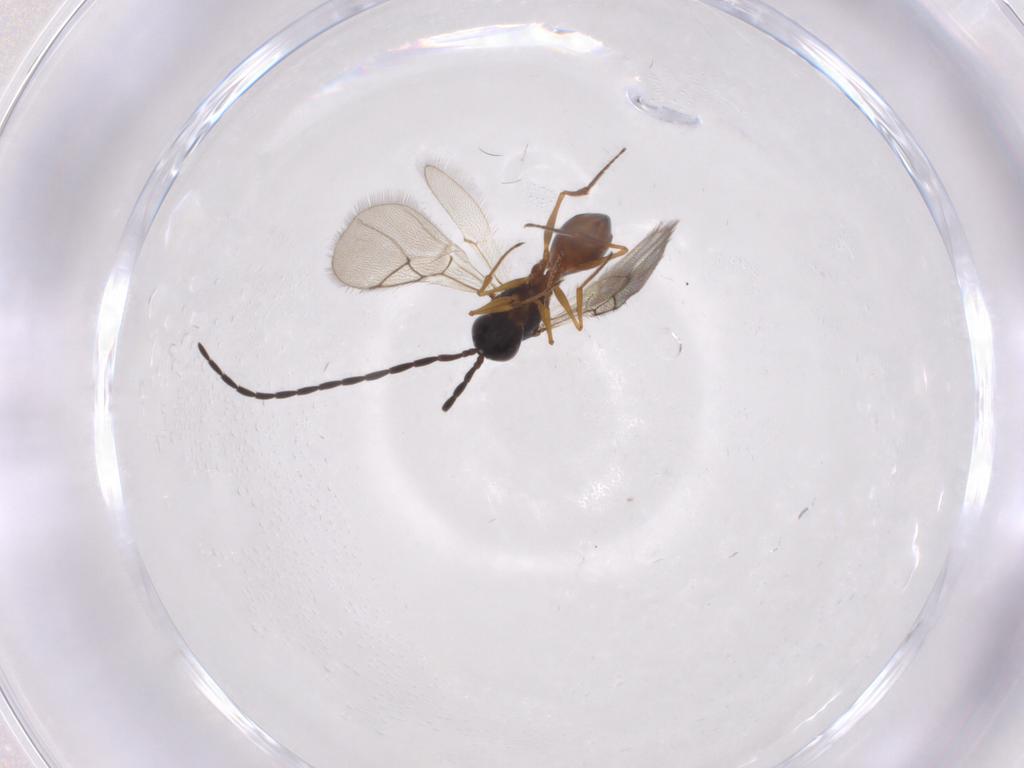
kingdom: Animalia
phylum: Arthropoda
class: Insecta
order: Hymenoptera
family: Figitidae
